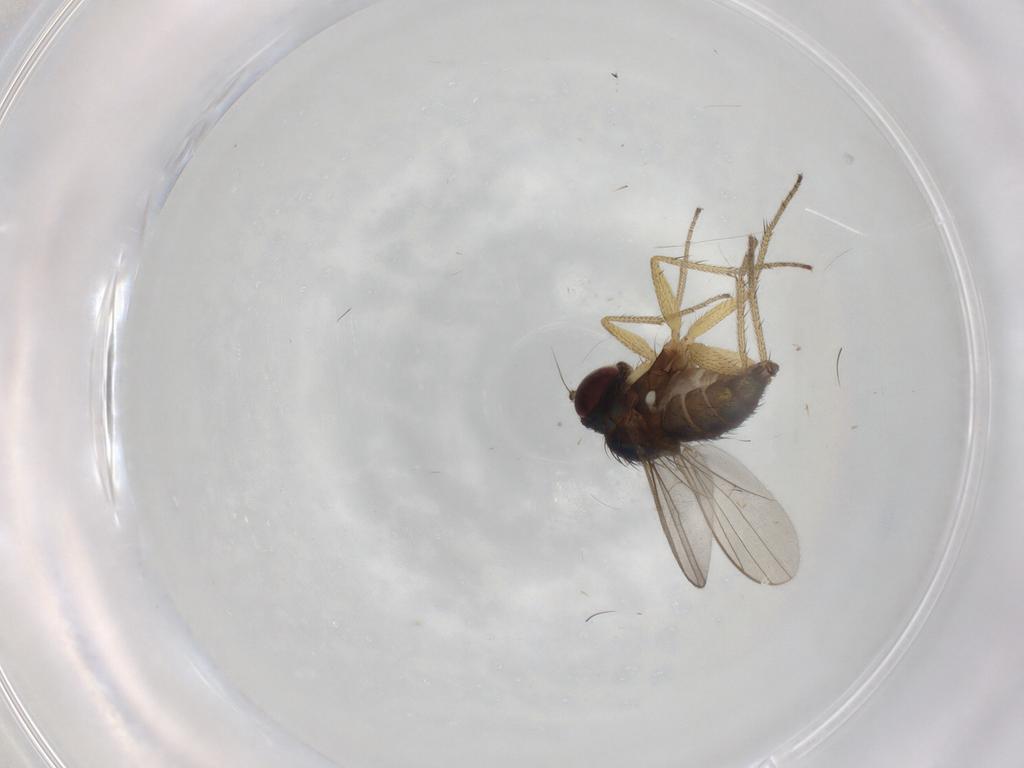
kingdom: Animalia
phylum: Arthropoda
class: Insecta
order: Diptera
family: Dolichopodidae
